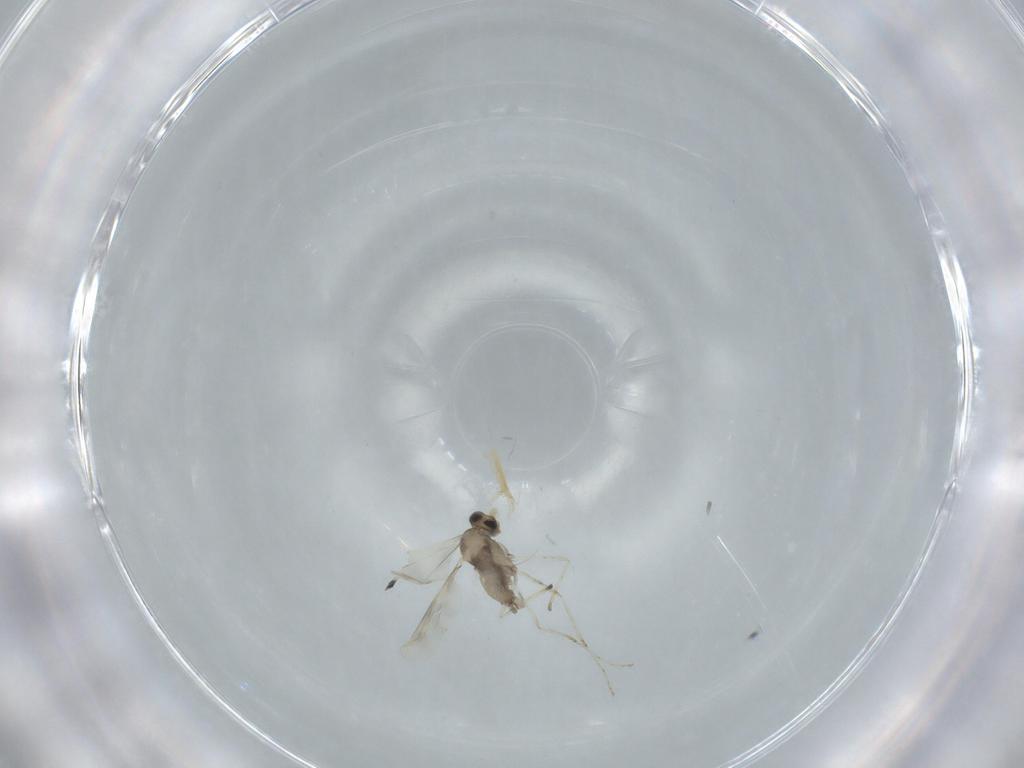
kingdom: Animalia
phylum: Arthropoda
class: Insecta
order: Diptera
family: Cecidomyiidae
